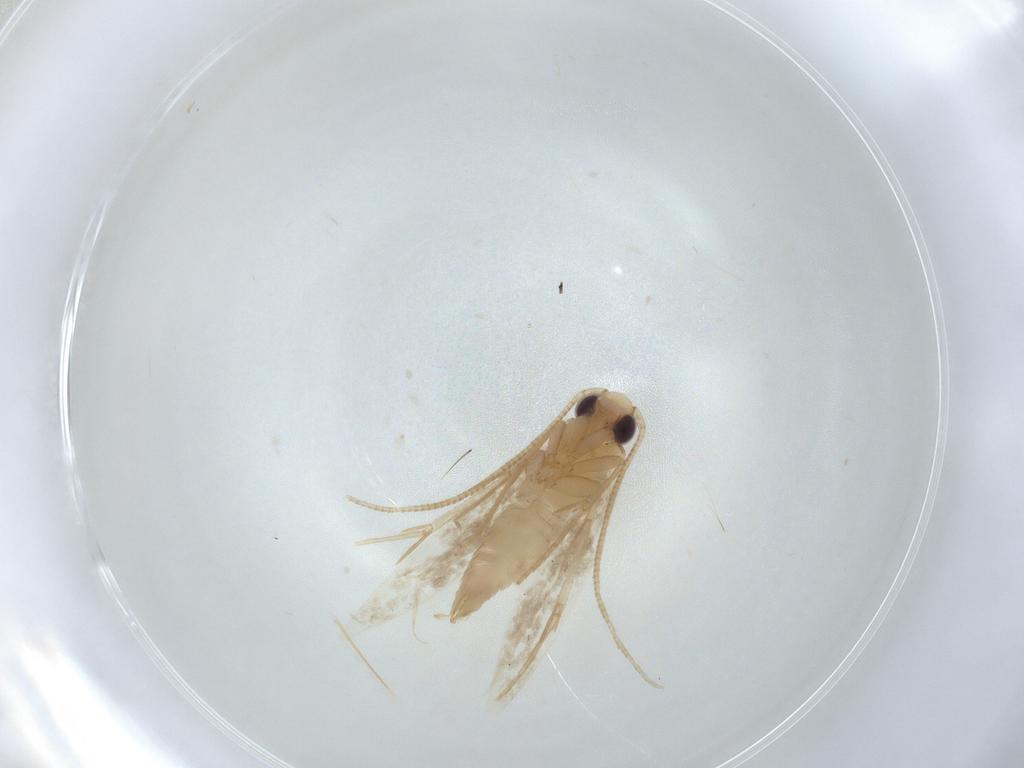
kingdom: Animalia
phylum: Arthropoda
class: Insecta
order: Lepidoptera
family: Tineidae
